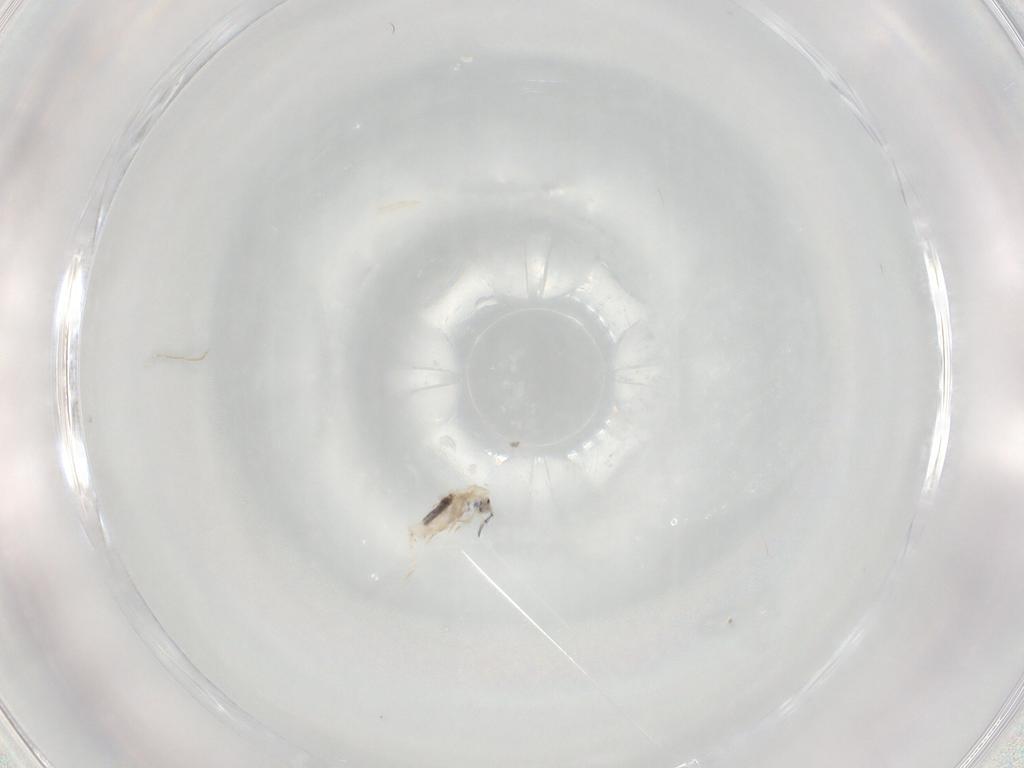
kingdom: Animalia
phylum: Arthropoda
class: Collembola
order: Entomobryomorpha
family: Entomobryidae
